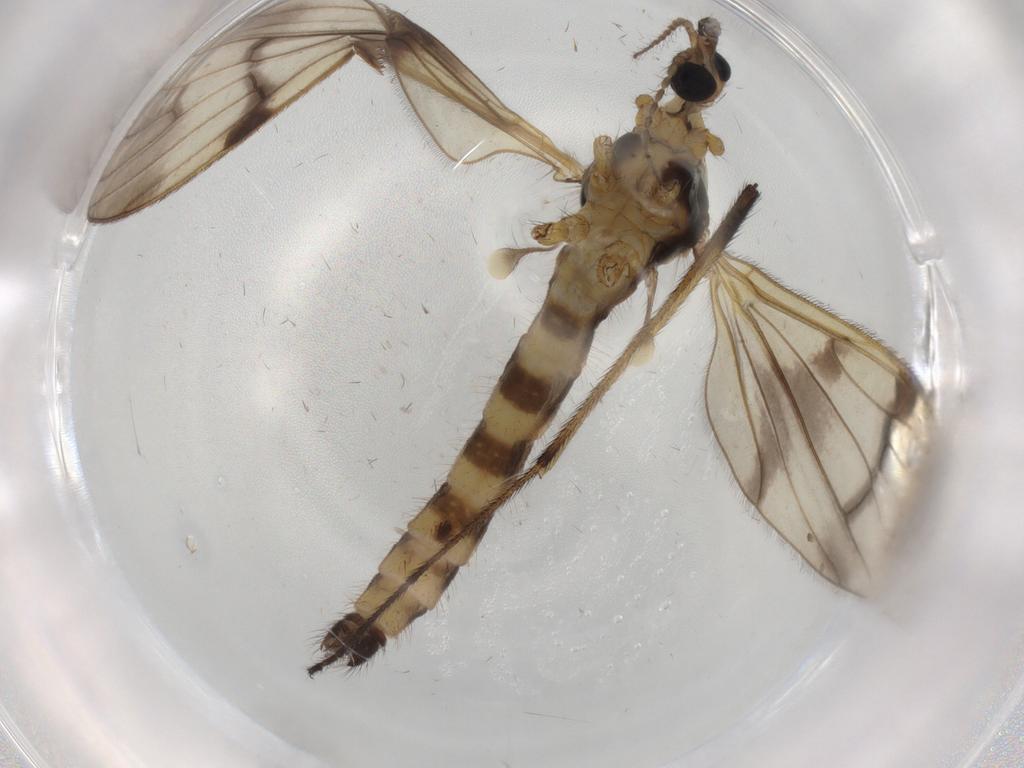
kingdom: Animalia
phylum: Arthropoda
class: Insecta
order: Diptera
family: Limoniidae
